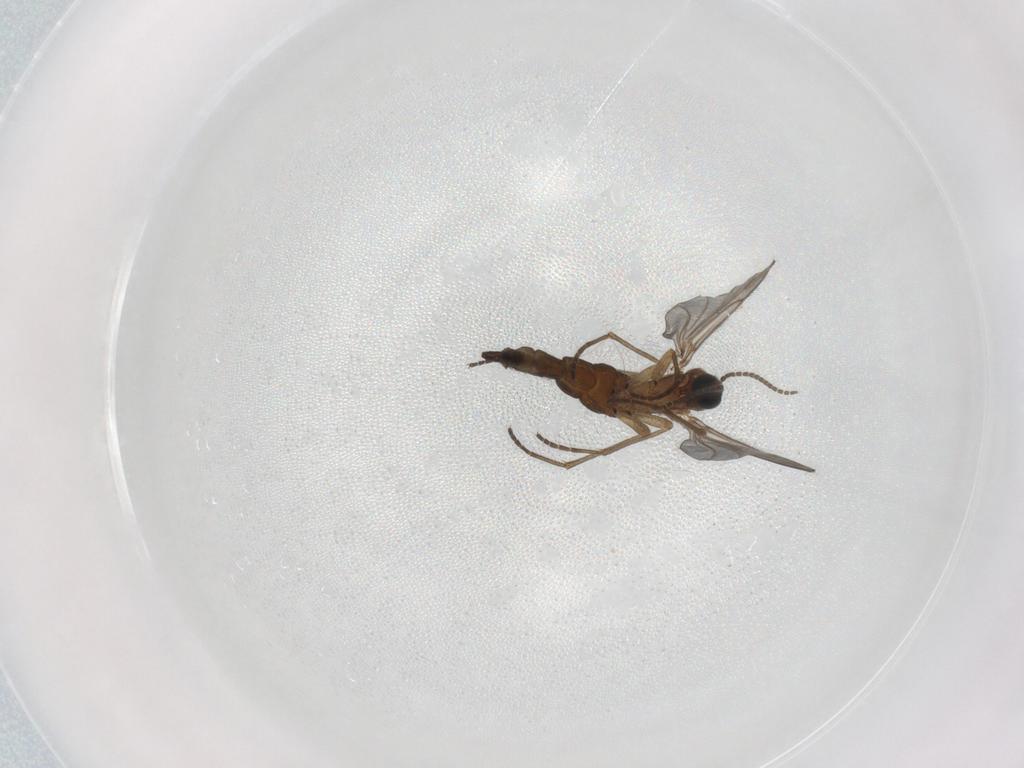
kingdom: Animalia
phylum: Arthropoda
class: Insecta
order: Diptera
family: Sciaridae
